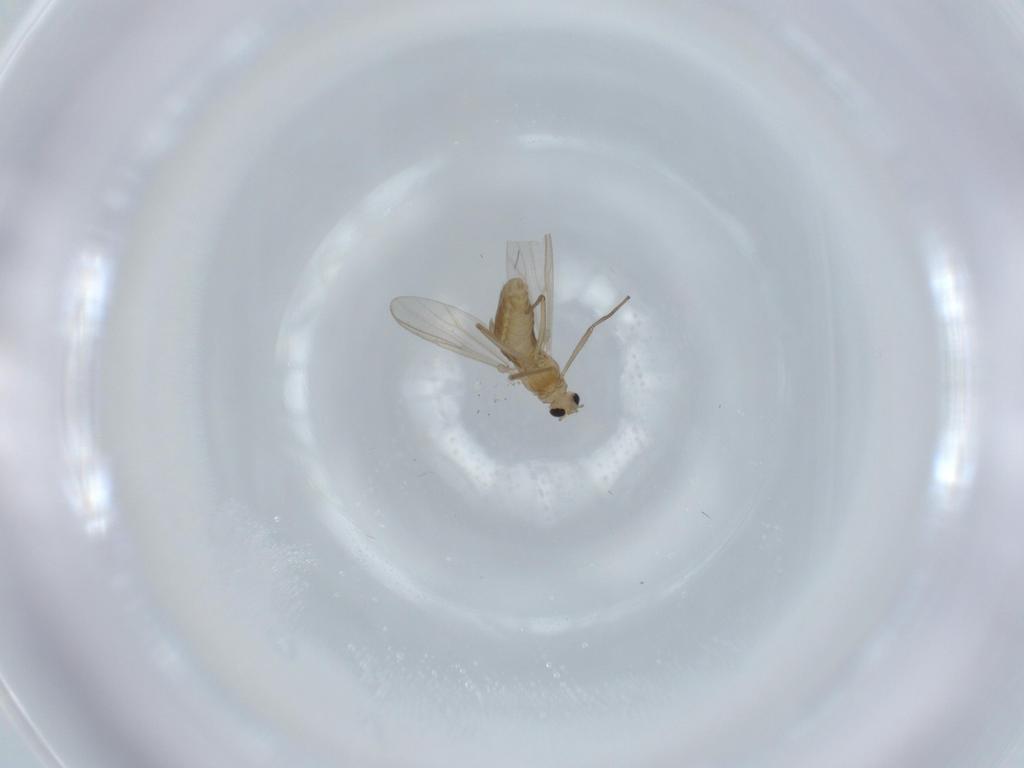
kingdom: Animalia
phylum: Arthropoda
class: Insecta
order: Diptera
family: Chironomidae
